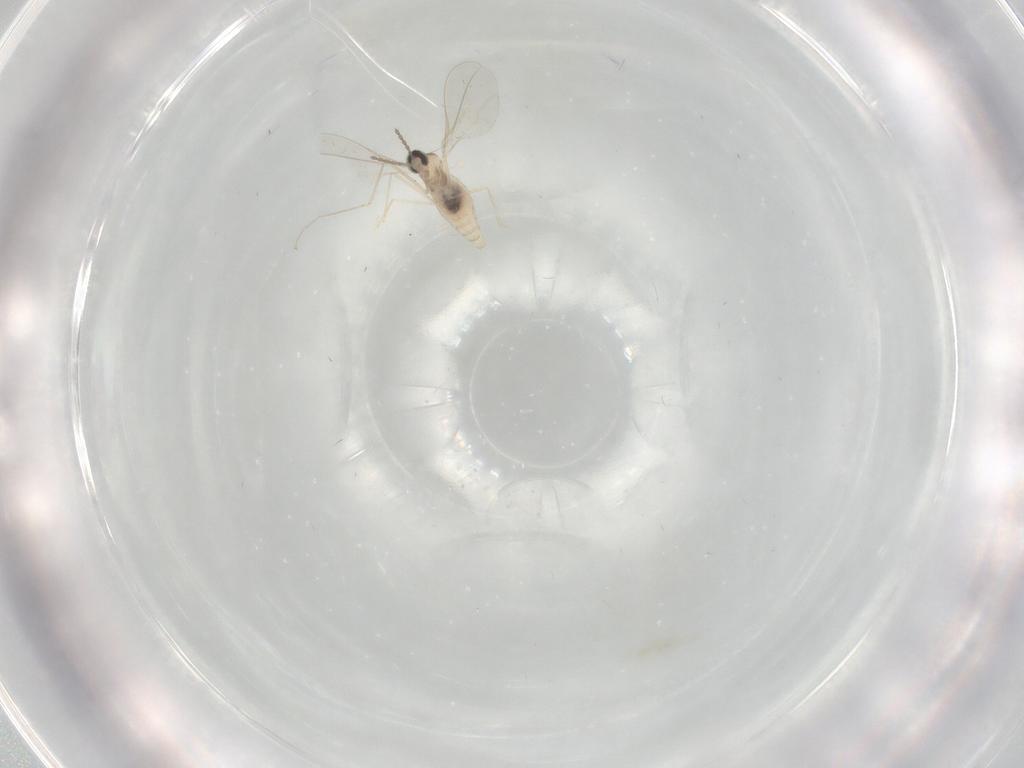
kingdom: Animalia
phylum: Arthropoda
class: Insecta
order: Diptera
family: Cecidomyiidae
